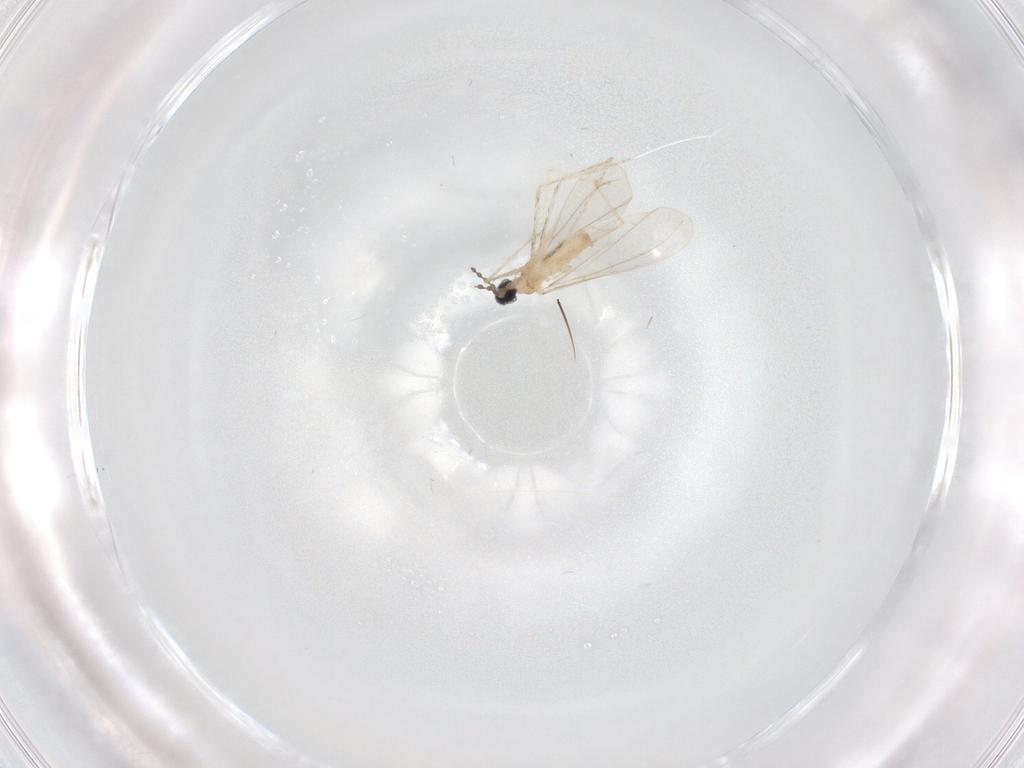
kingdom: Animalia
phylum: Arthropoda
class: Insecta
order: Diptera
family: Cecidomyiidae
